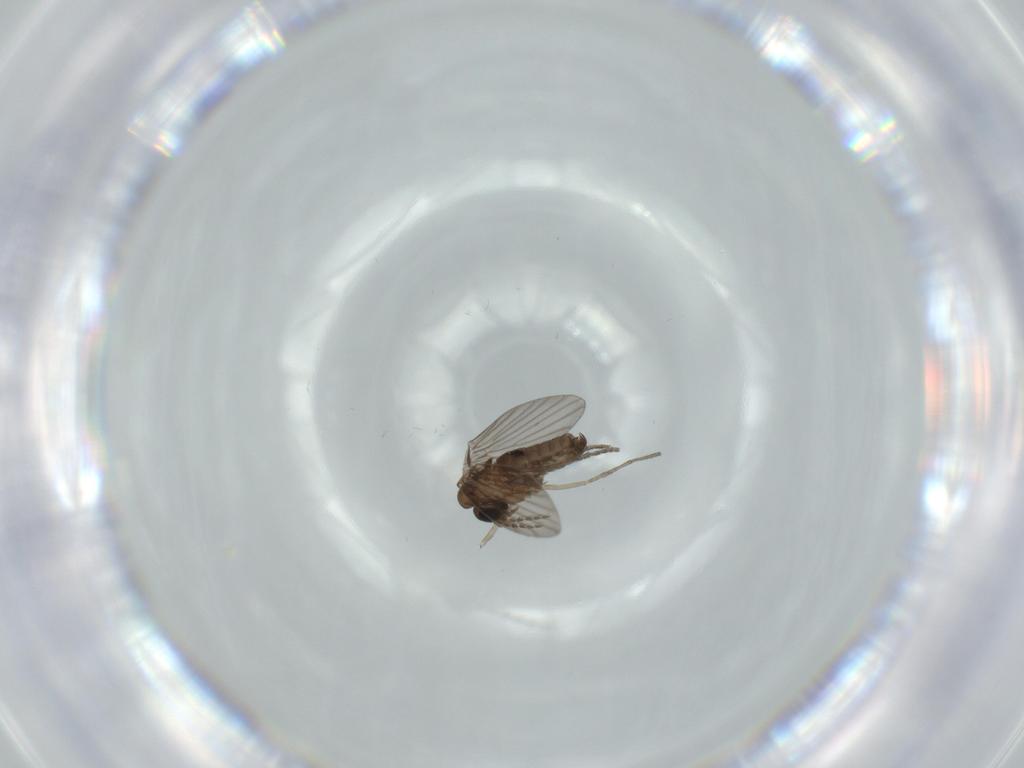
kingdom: Animalia
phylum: Arthropoda
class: Insecta
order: Diptera
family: Psychodidae
